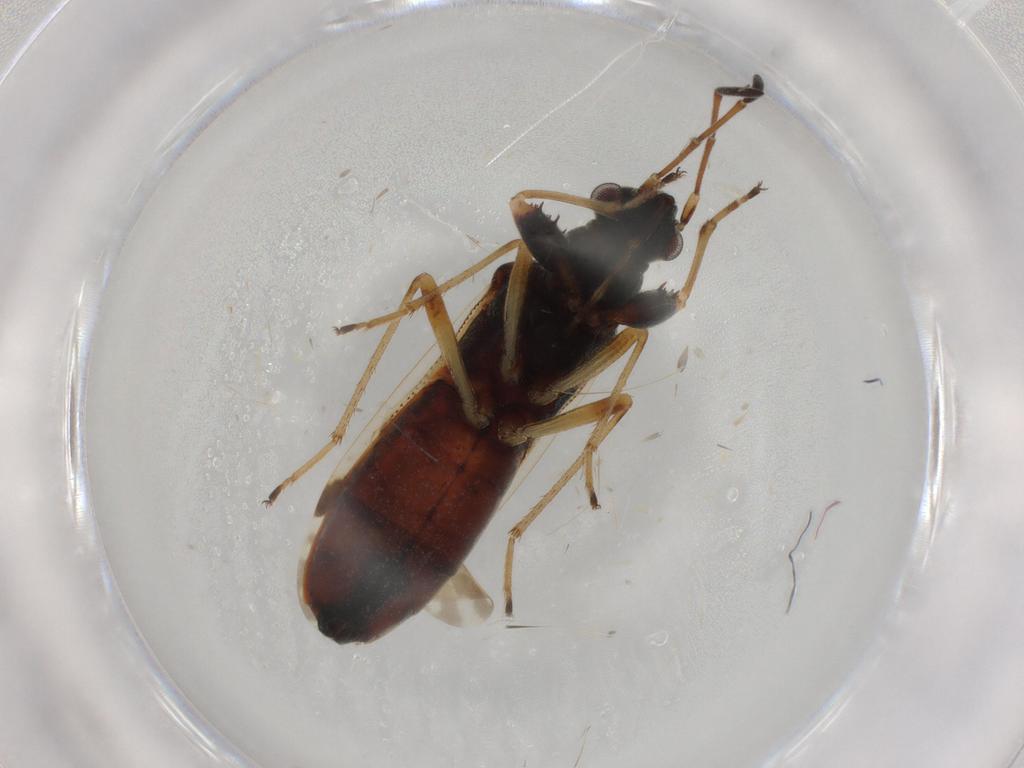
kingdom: Animalia
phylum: Arthropoda
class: Insecta
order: Hemiptera
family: Rhyparochromidae
